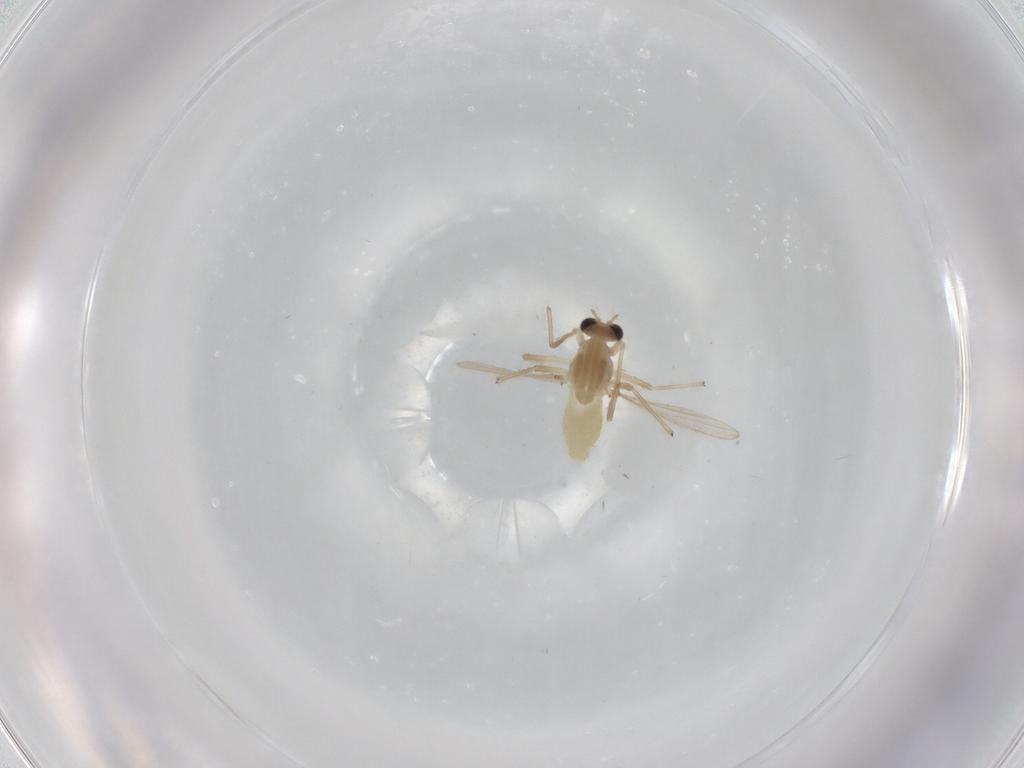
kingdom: Animalia
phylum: Arthropoda
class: Insecta
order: Diptera
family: Chironomidae
